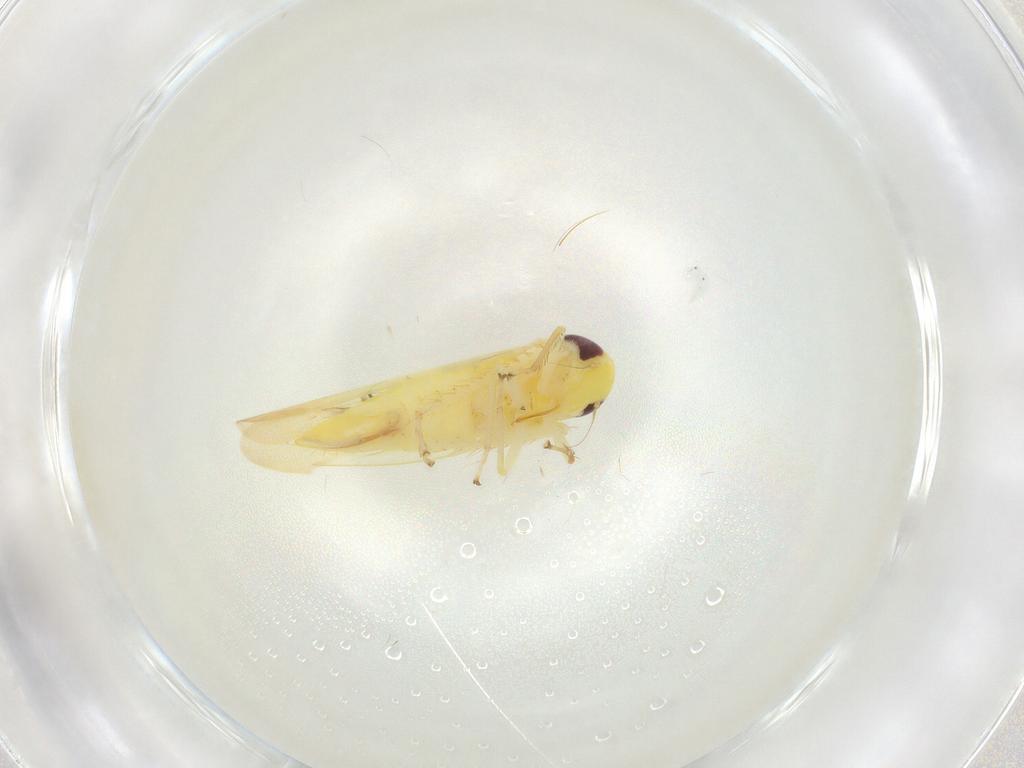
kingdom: Animalia
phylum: Arthropoda
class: Insecta
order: Hemiptera
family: Cicadellidae
